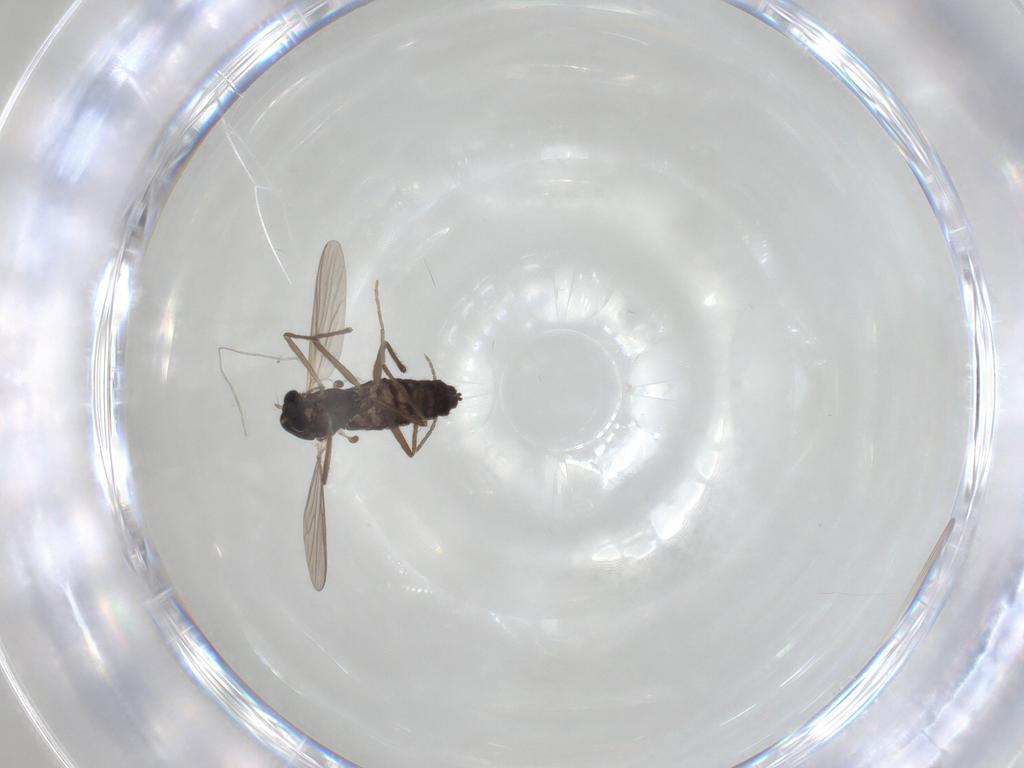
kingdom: Animalia
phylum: Arthropoda
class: Insecta
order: Diptera
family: Chironomidae
